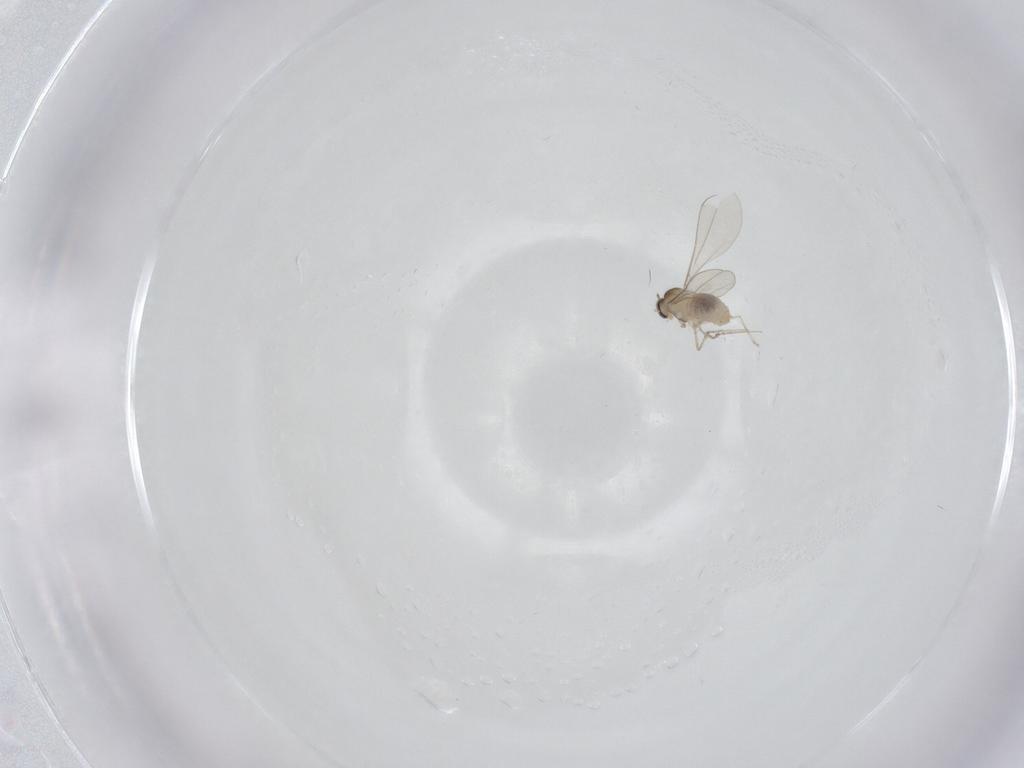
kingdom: Animalia
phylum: Arthropoda
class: Insecta
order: Diptera
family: Cecidomyiidae
